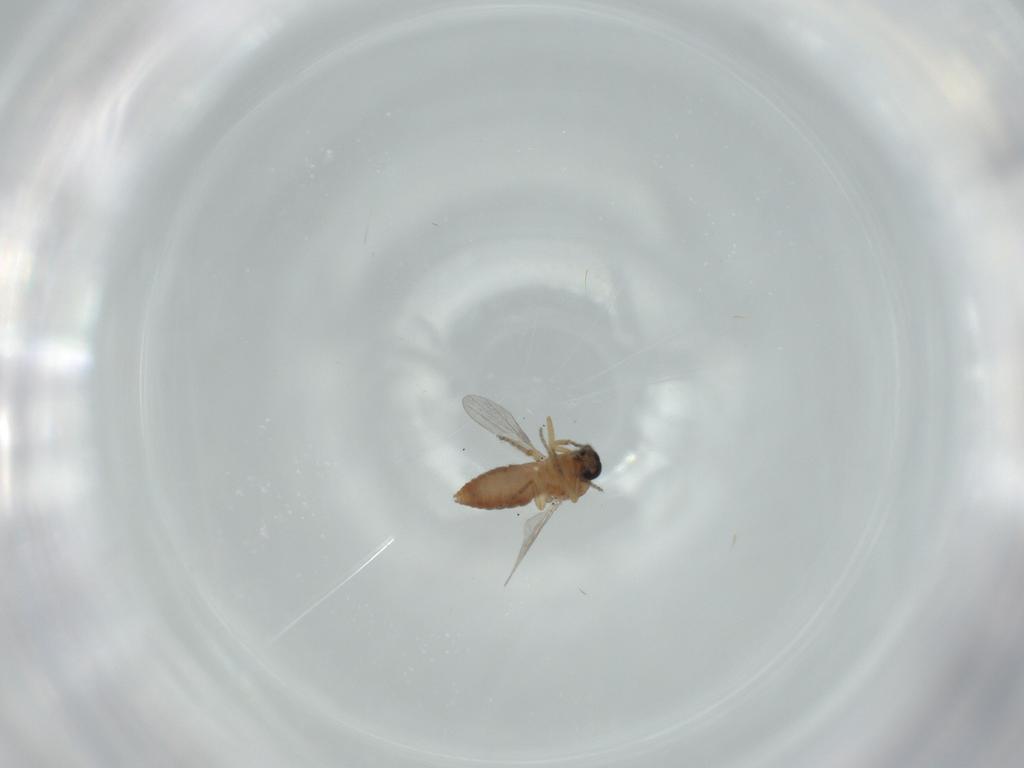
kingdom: Animalia
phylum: Arthropoda
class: Insecta
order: Diptera
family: Ceratopogonidae
